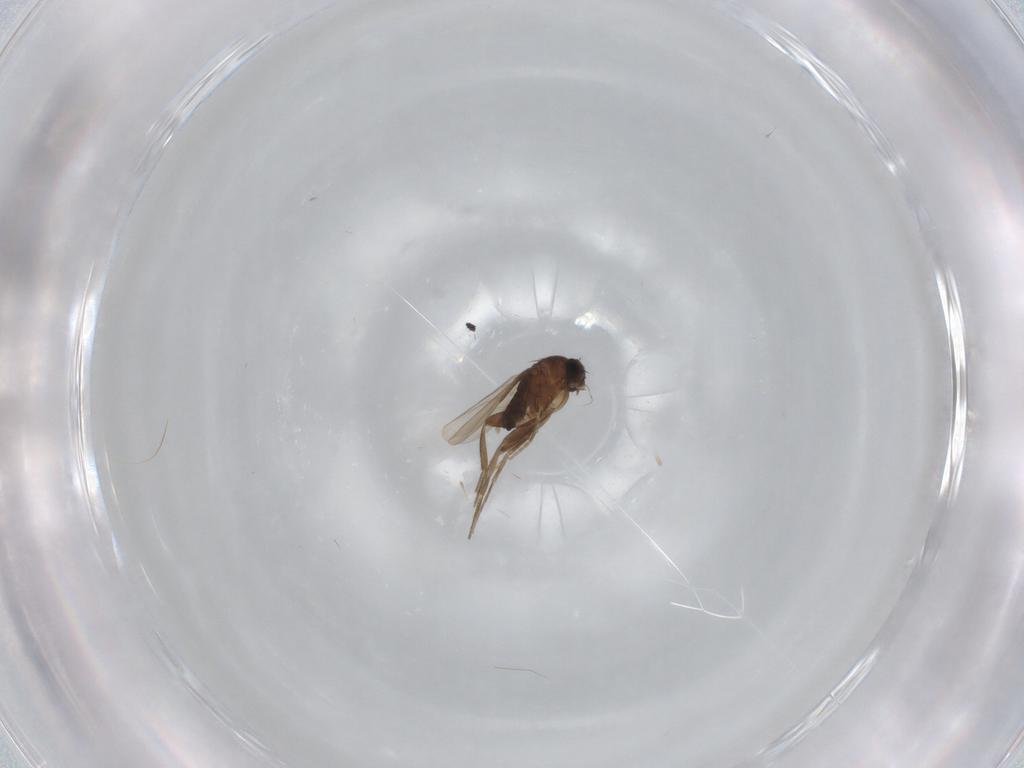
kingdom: Animalia
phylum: Arthropoda
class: Insecta
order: Diptera
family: Phoridae
